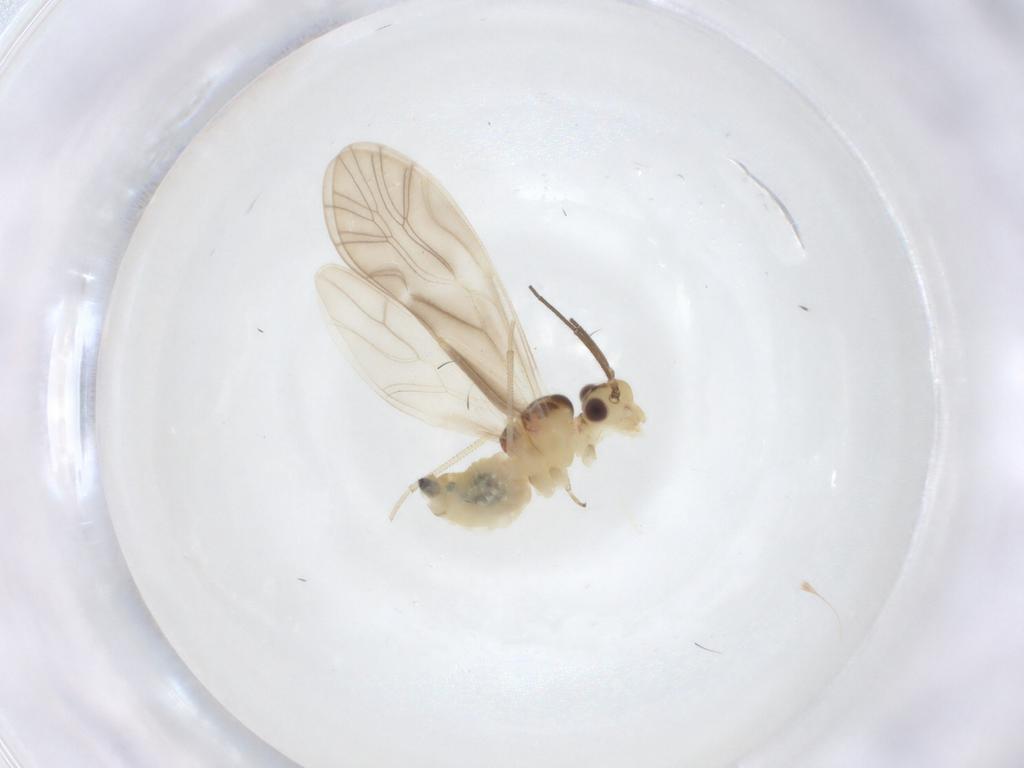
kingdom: Animalia
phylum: Arthropoda
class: Insecta
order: Psocodea
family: Caeciliusidae
